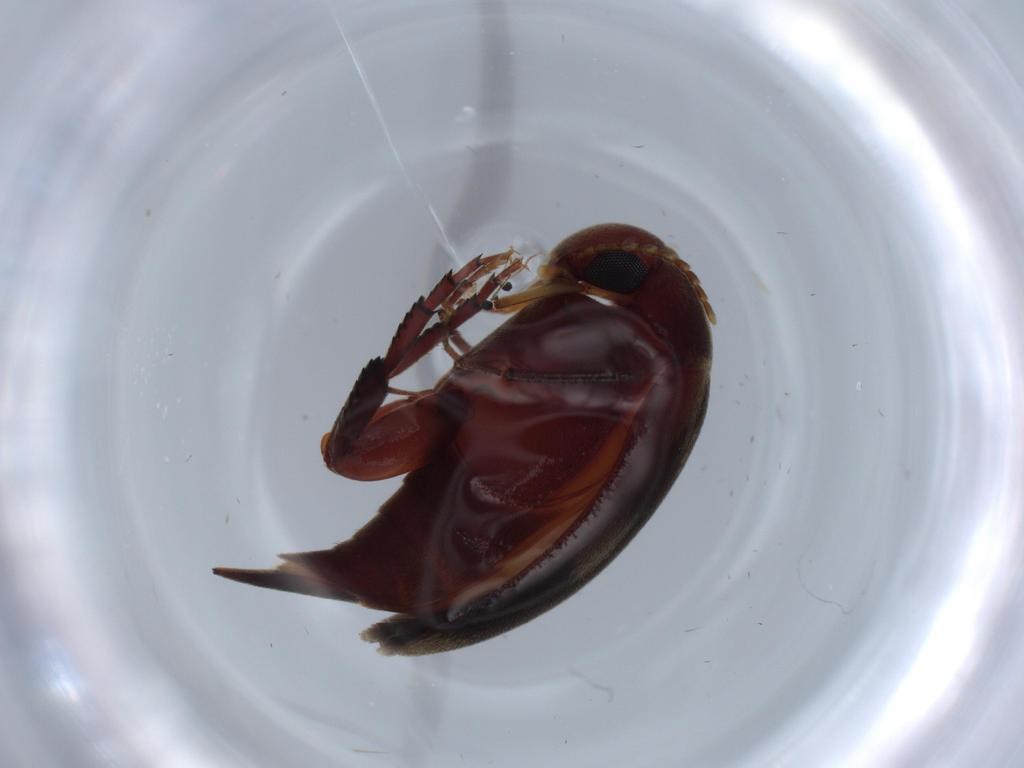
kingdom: Animalia
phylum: Arthropoda
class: Insecta
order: Coleoptera
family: Mordellidae
